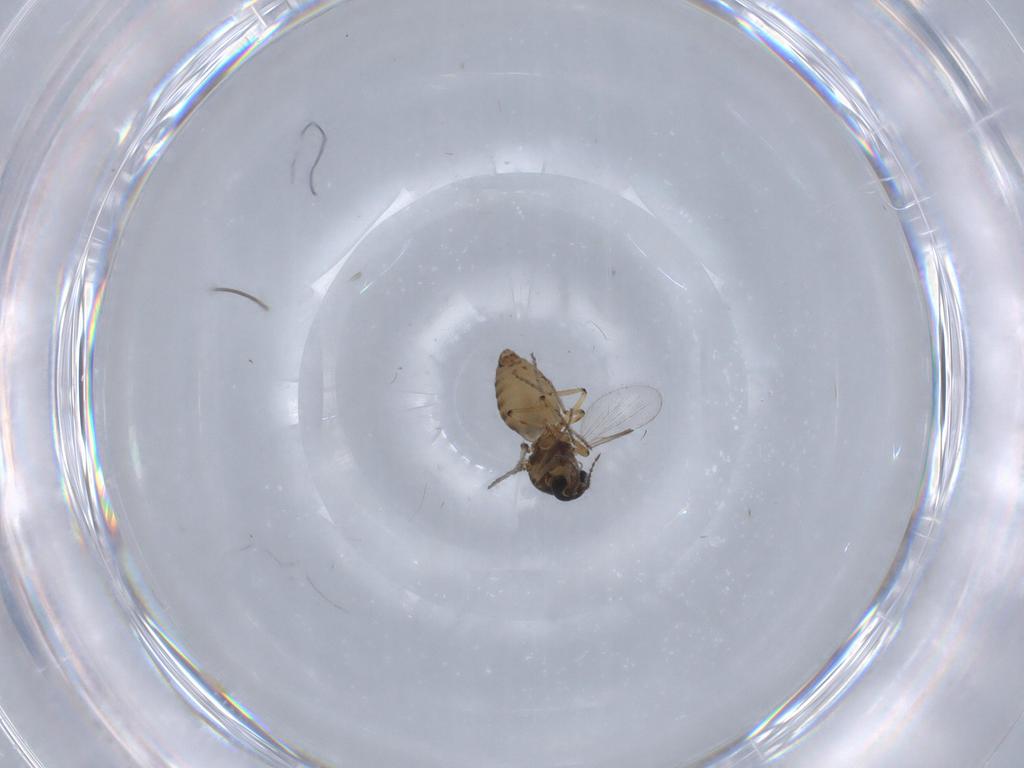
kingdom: Animalia
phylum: Arthropoda
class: Insecta
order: Diptera
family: Ceratopogonidae
